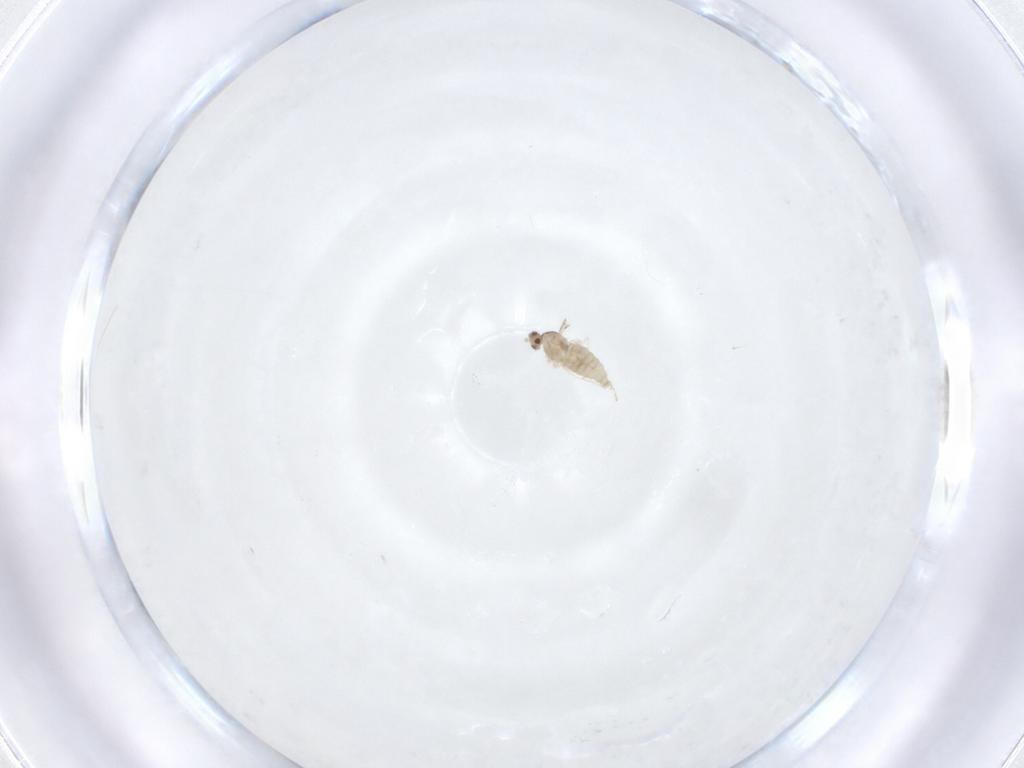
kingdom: Animalia
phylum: Arthropoda
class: Insecta
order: Diptera
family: Cecidomyiidae
